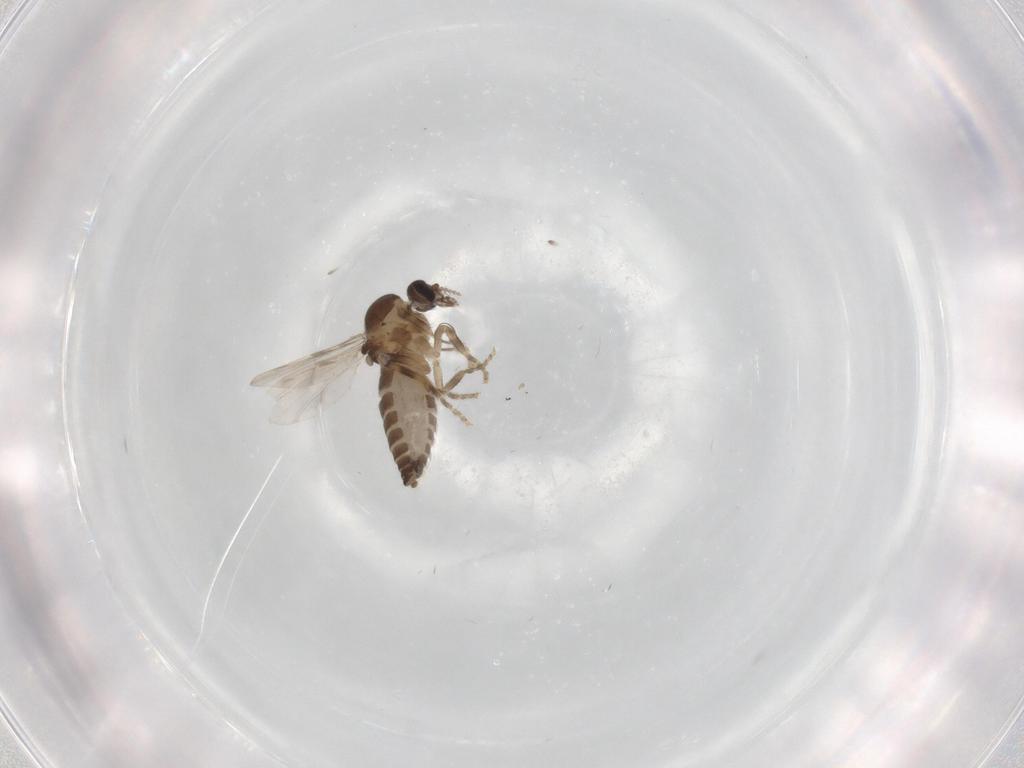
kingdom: Animalia
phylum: Arthropoda
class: Insecta
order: Diptera
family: Ceratopogonidae
